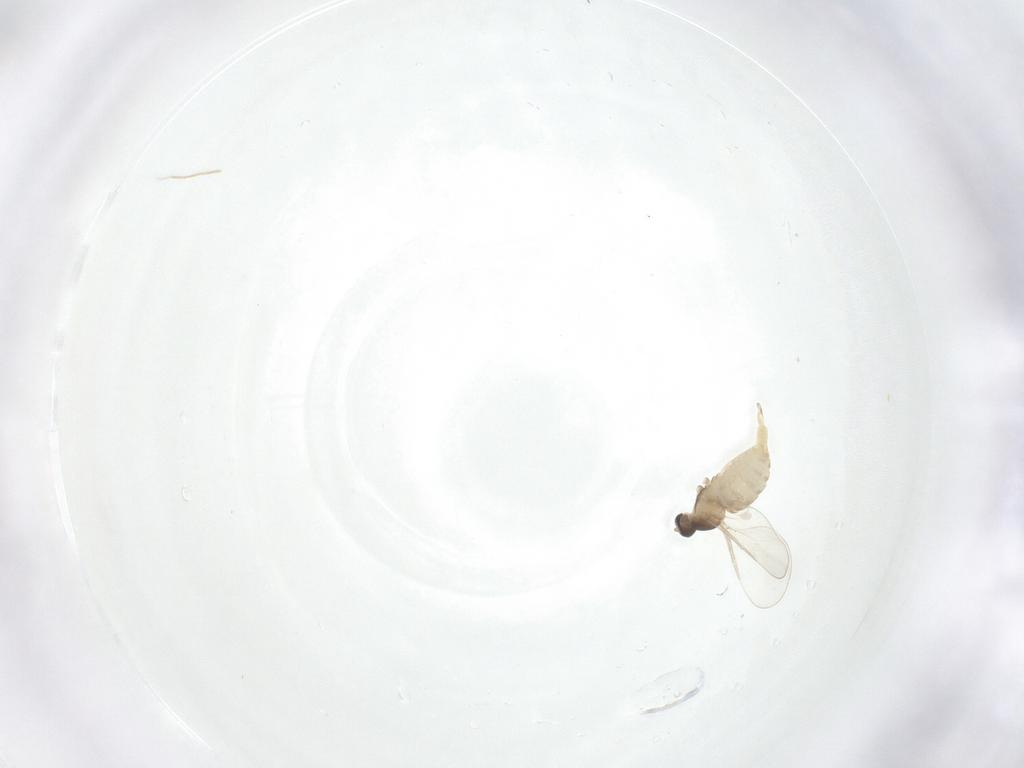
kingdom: Animalia
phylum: Arthropoda
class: Insecta
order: Diptera
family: Cecidomyiidae
